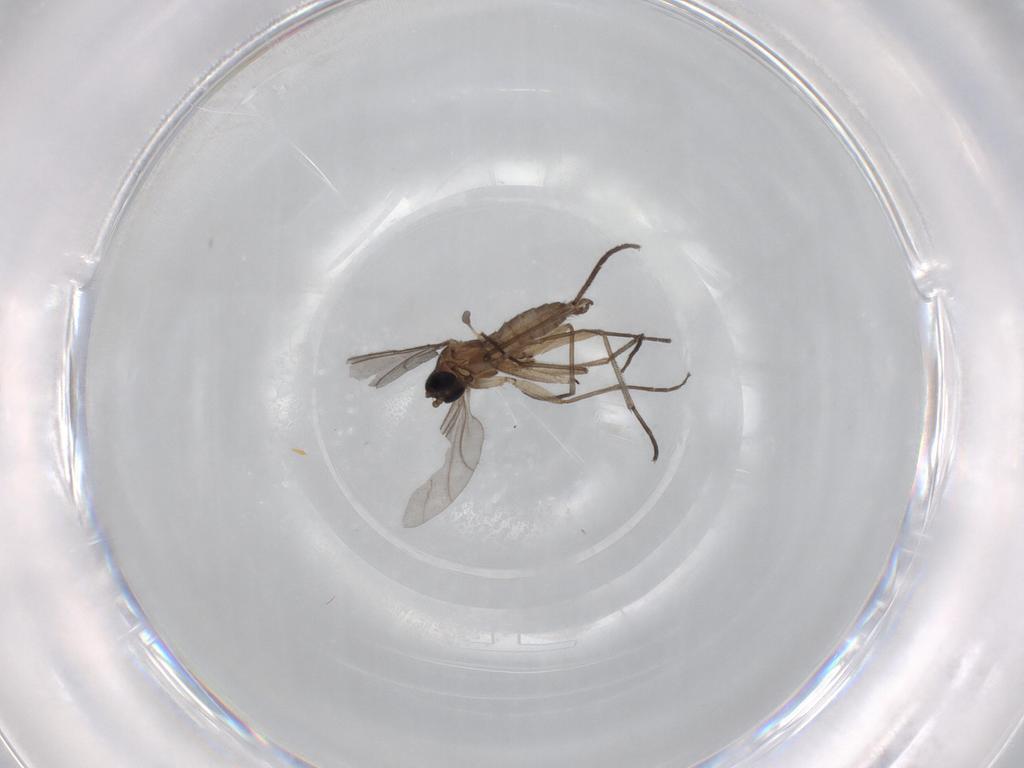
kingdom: Animalia
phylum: Arthropoda
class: Insecta
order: Diptera
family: Sciaridae
